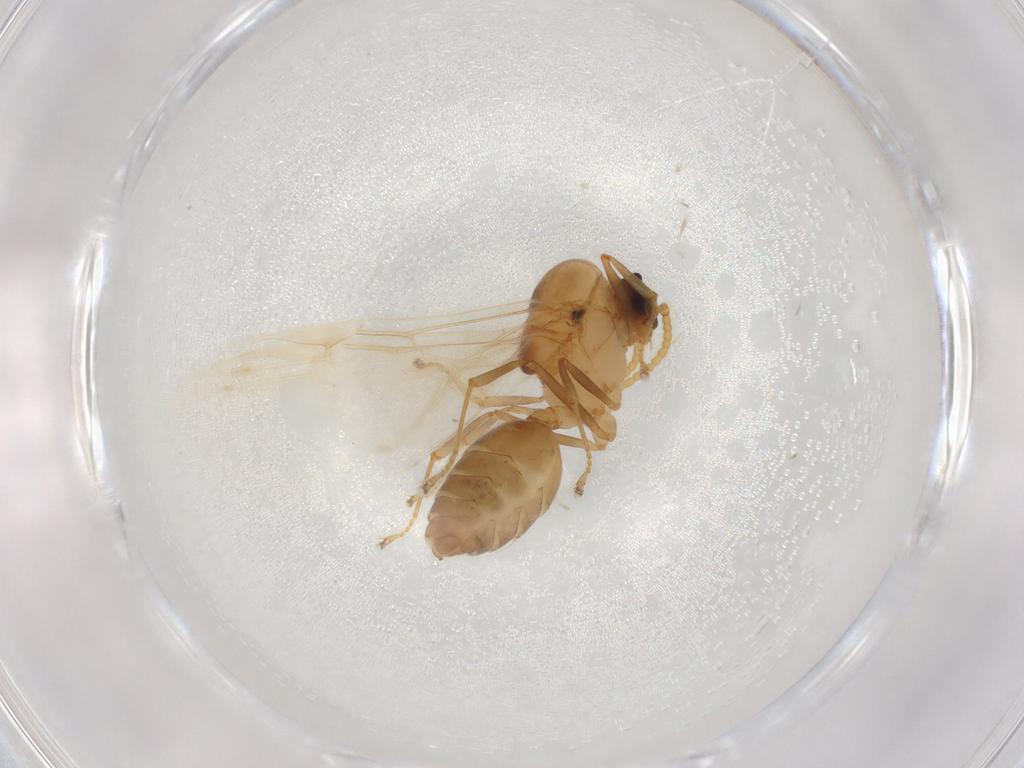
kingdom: Animalia
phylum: Arthropoda
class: Insecta
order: Hymenoptera
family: Formicidae
